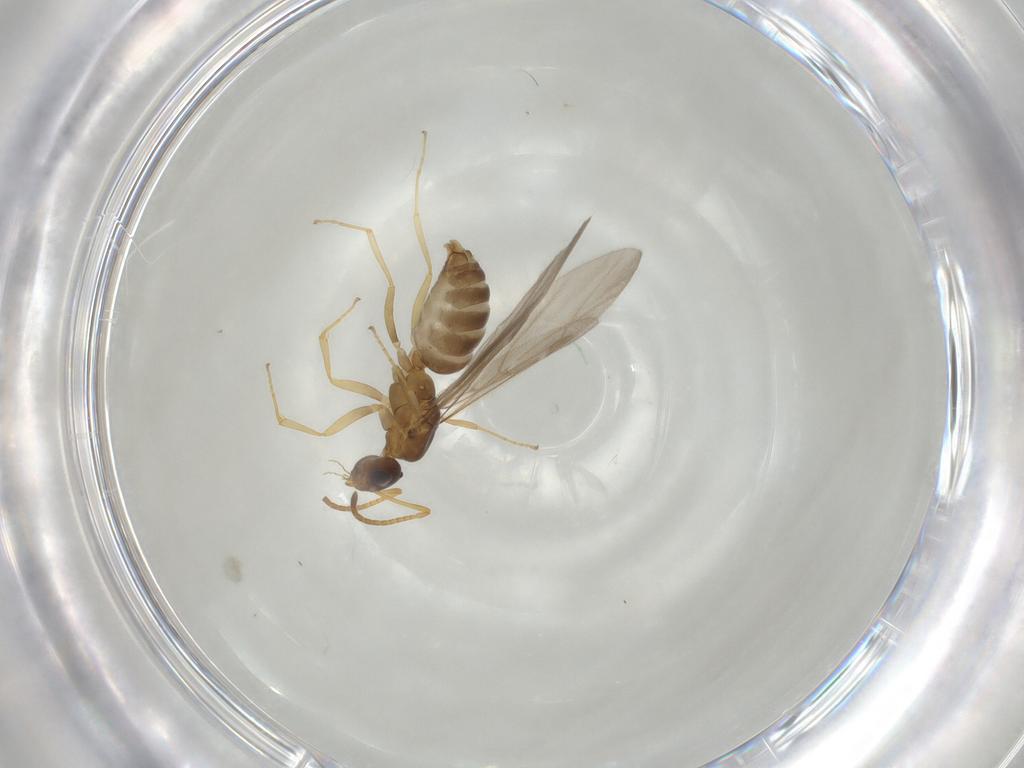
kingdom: Animalia
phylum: Arthropoda
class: Insecta
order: Hymenoptera
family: Formicidae
